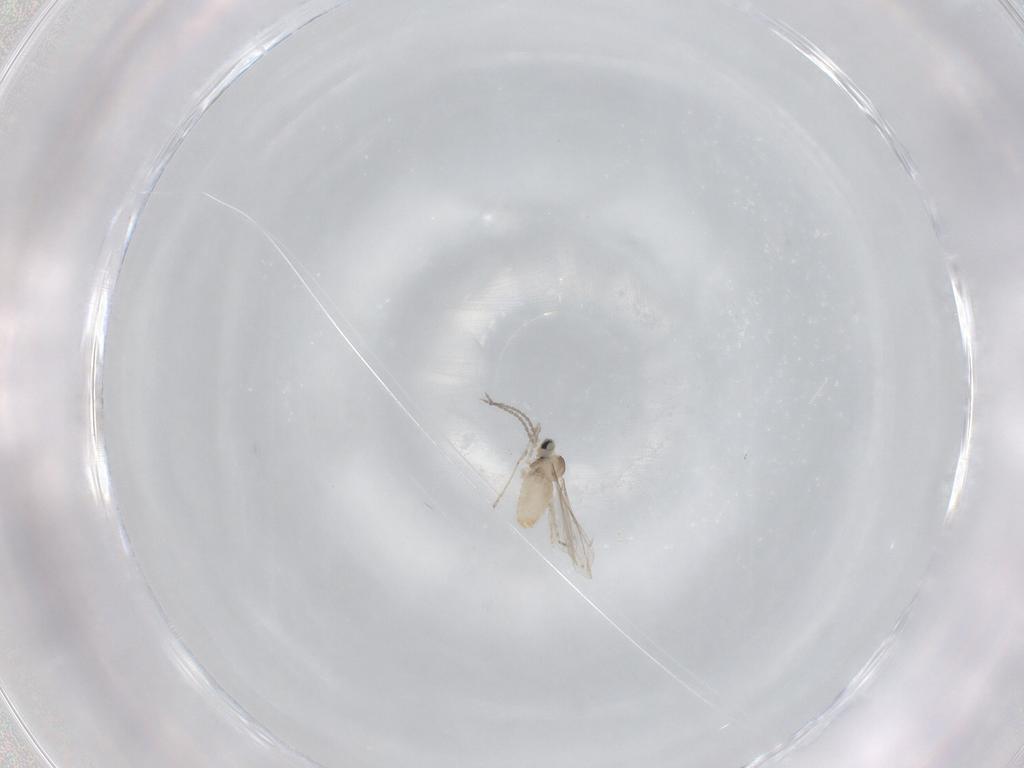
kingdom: Animalia
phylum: Arthropoda
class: Insecta
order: Diptera
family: Cecidomyiidae
